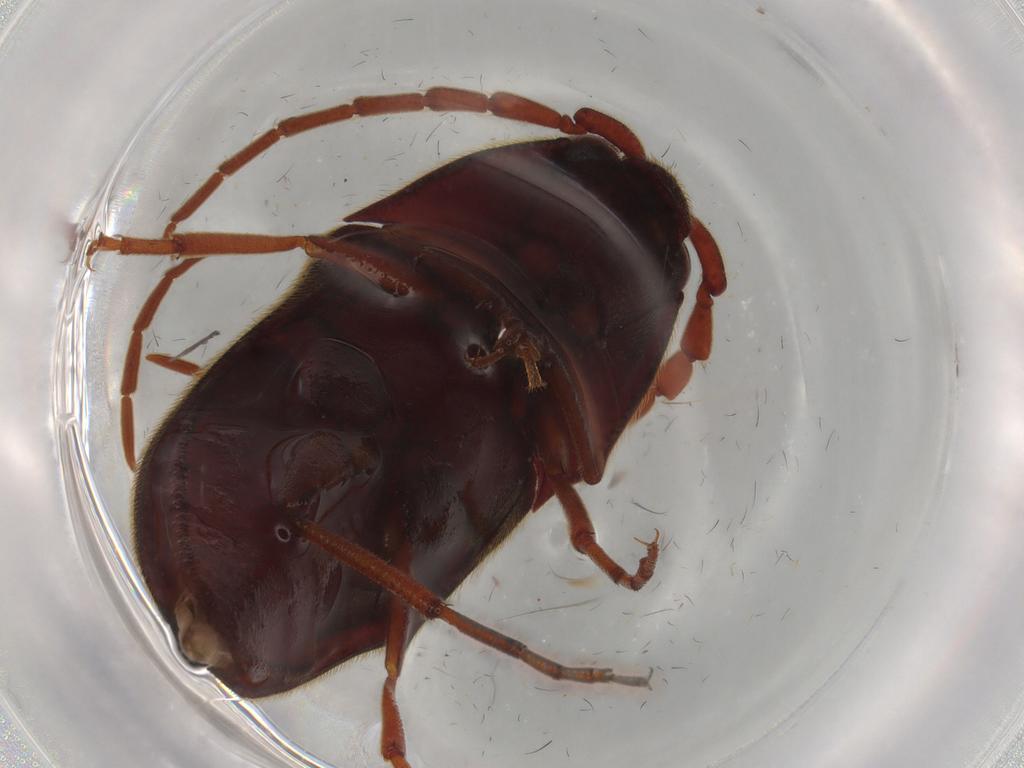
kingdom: Animalia
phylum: Arthropoda
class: Insecta
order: Coleoptera
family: Eucnemidae
